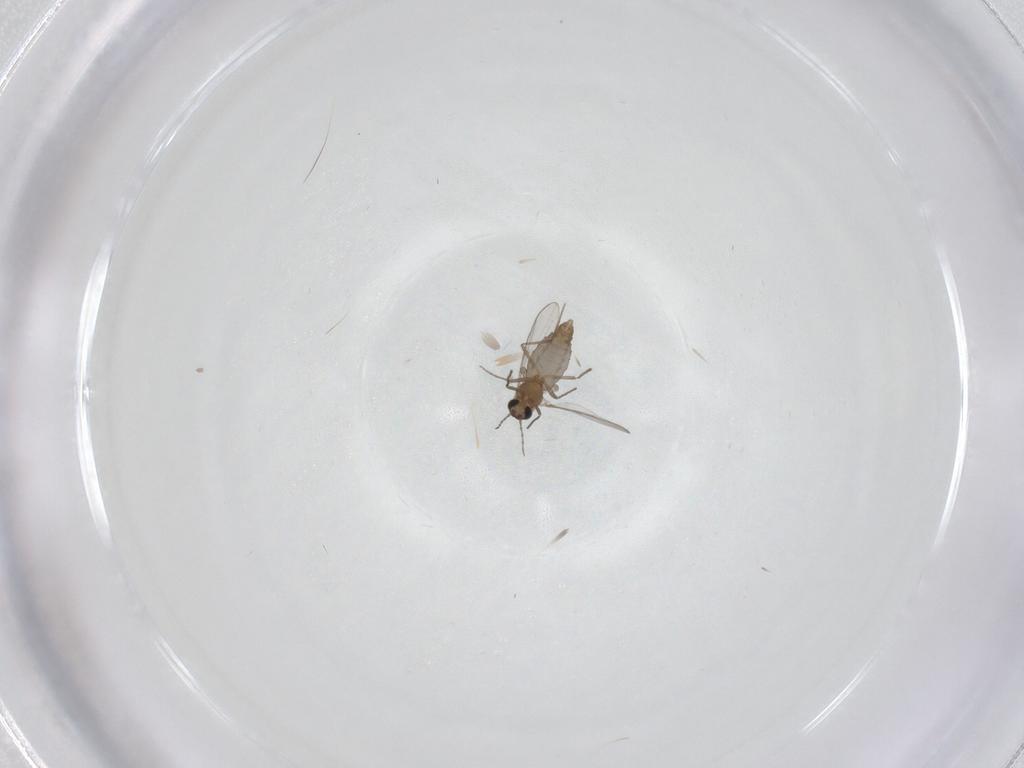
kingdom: Animalia
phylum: Arthropoda
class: Insecta
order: Diptera
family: Chironomidae
